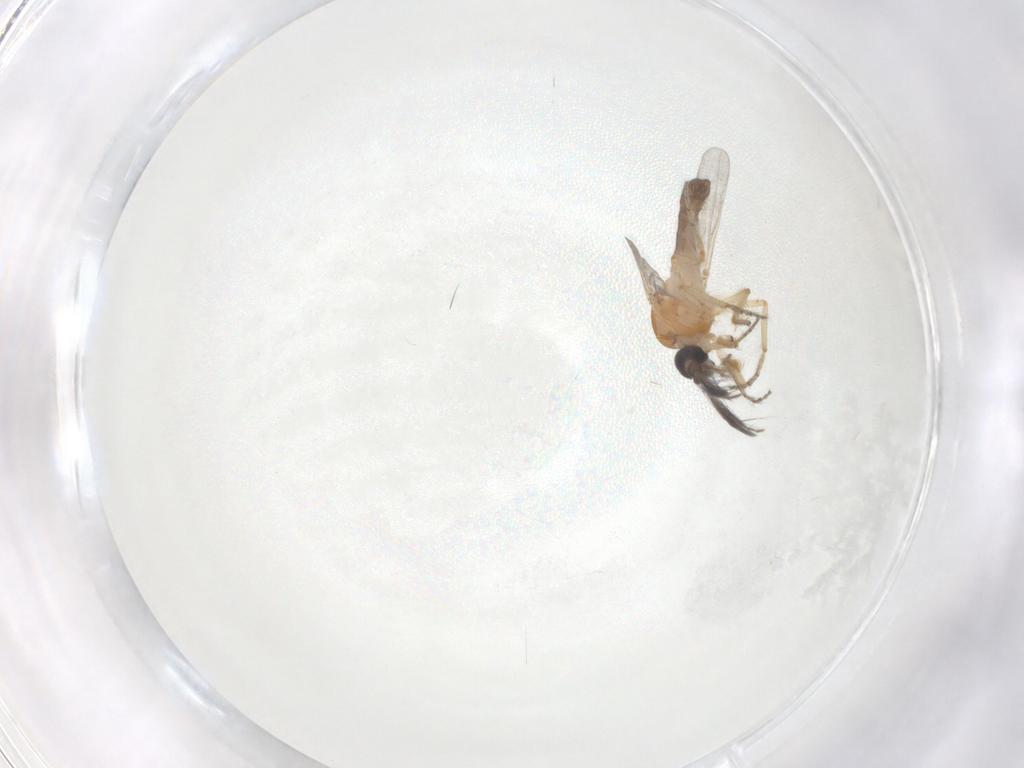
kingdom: Animalia
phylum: Arthropoda
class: Insecta
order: Diptera
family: Ceratopogonidae
